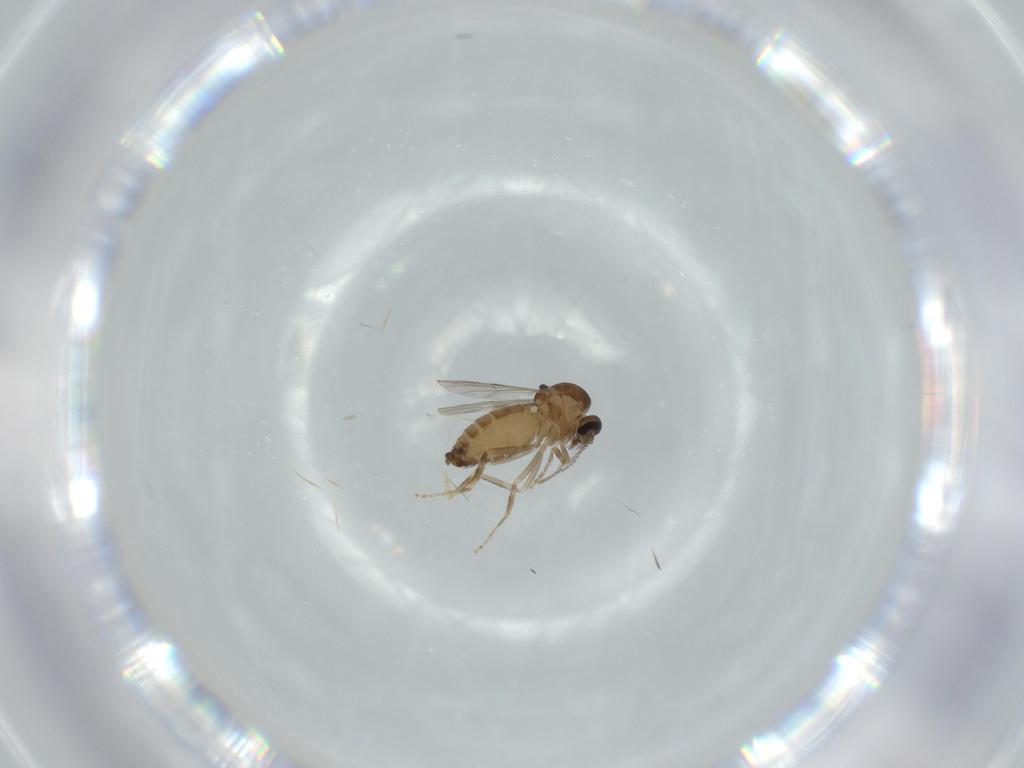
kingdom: Animalia
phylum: Arthropoda
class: Insecta
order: Diptera
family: Ceratopogonidae
